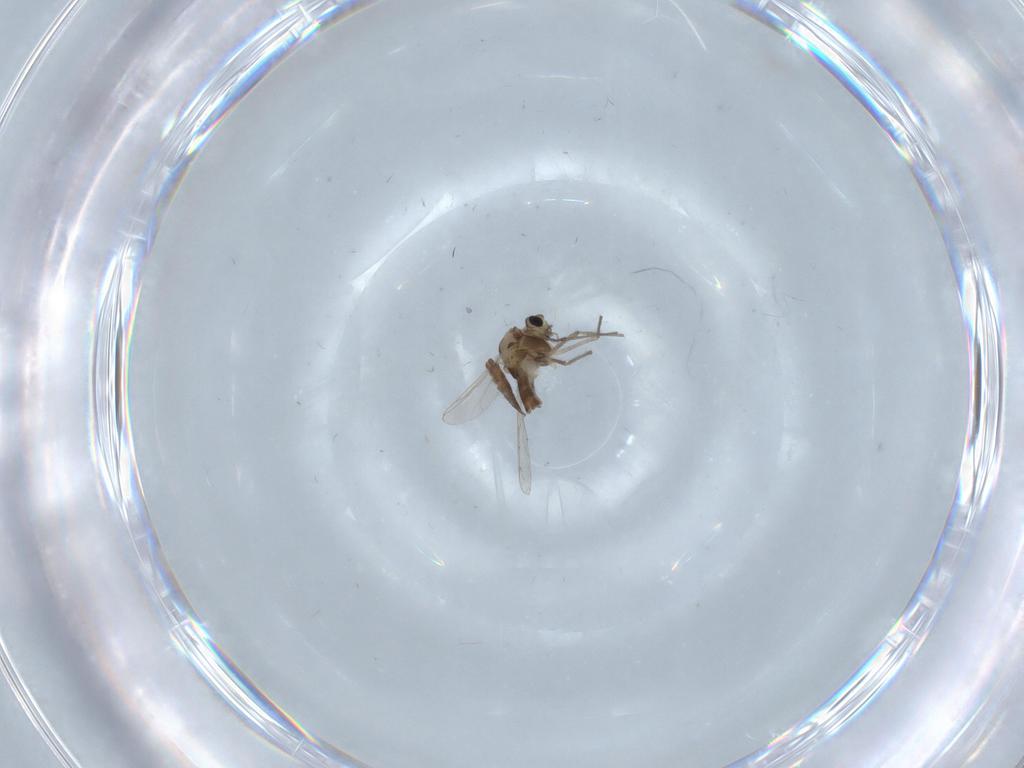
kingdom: Animalia
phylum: Arthropoda
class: Insecta
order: Diptera
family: Chironomidae
